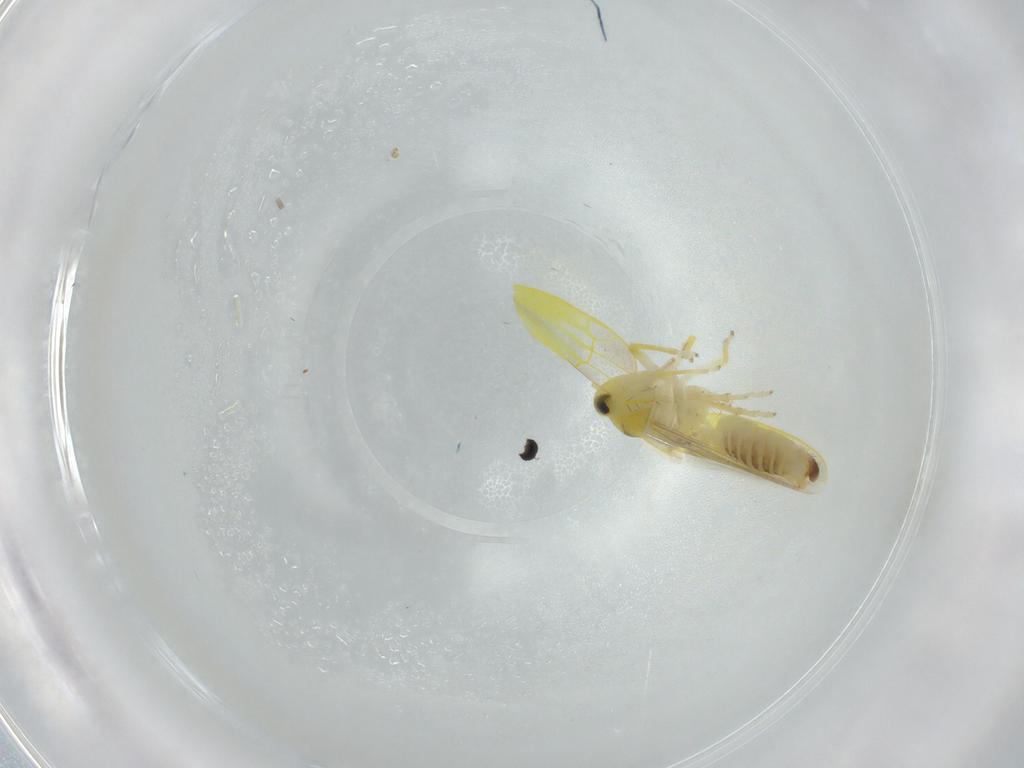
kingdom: Animalia
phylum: Arthropoda
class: Insecta
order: Hemiptera
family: Cicadellidae
